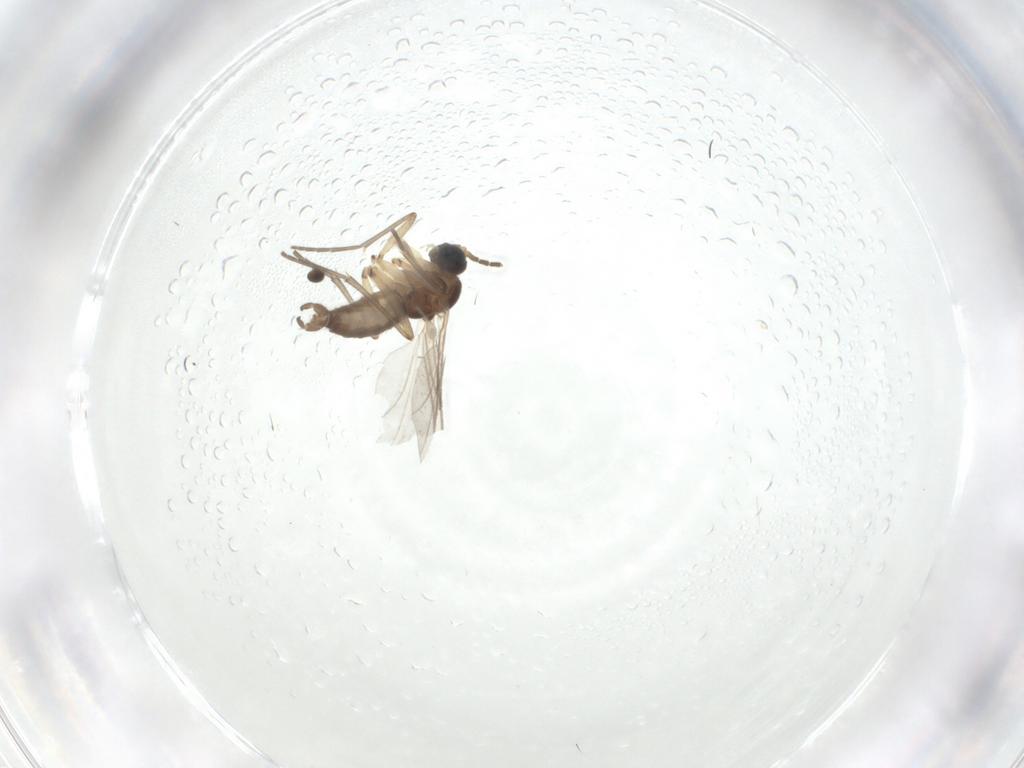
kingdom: Animalia
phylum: Arthropoda
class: Insecta
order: Diptera
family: Sciaridae
